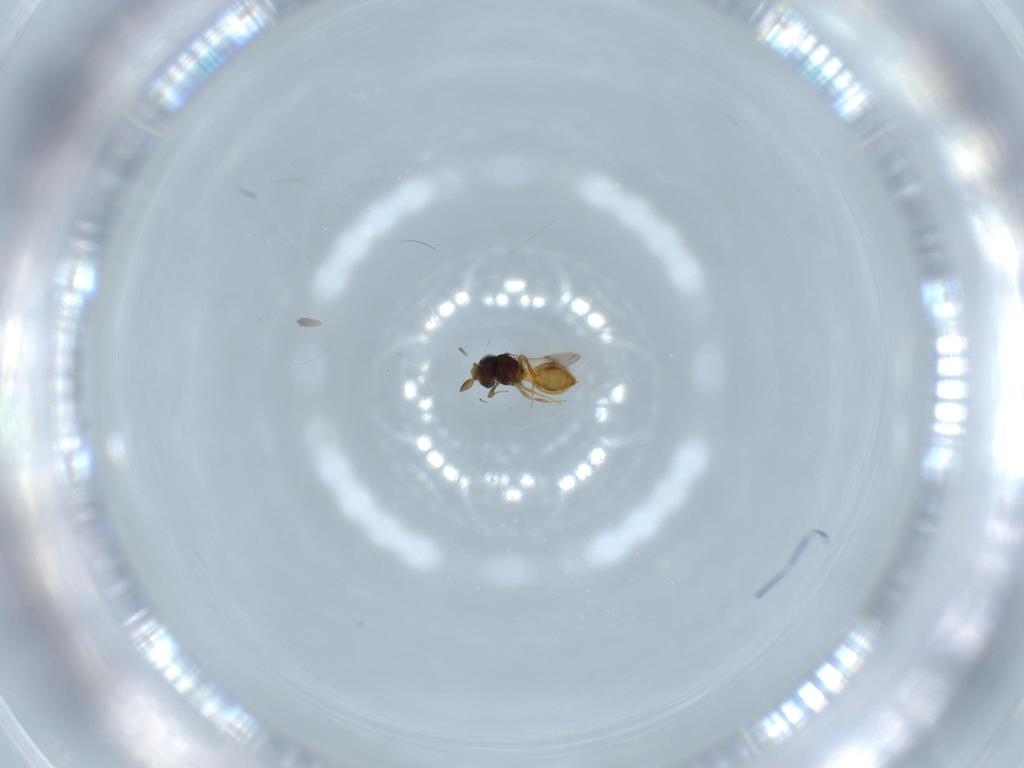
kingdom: Animalia
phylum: Arthropoda
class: Insecta
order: Hymenoptera
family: Scelionidae
